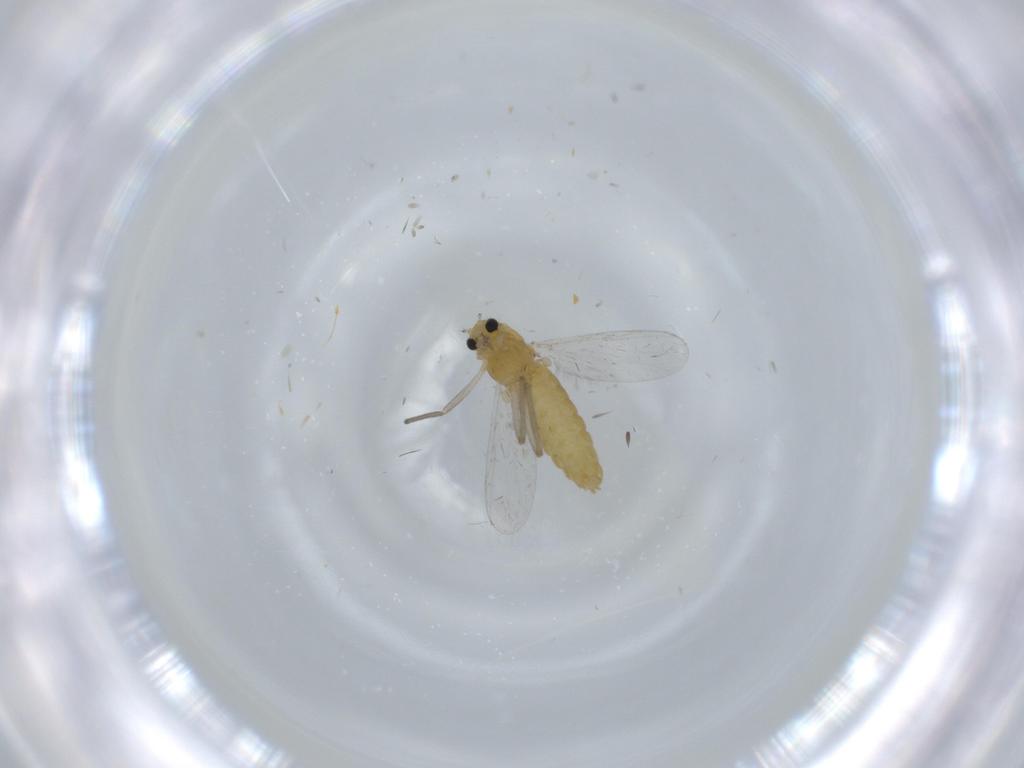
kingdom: Animalia
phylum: Arthropoda
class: Insecta
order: Diptera
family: Chironomidae
